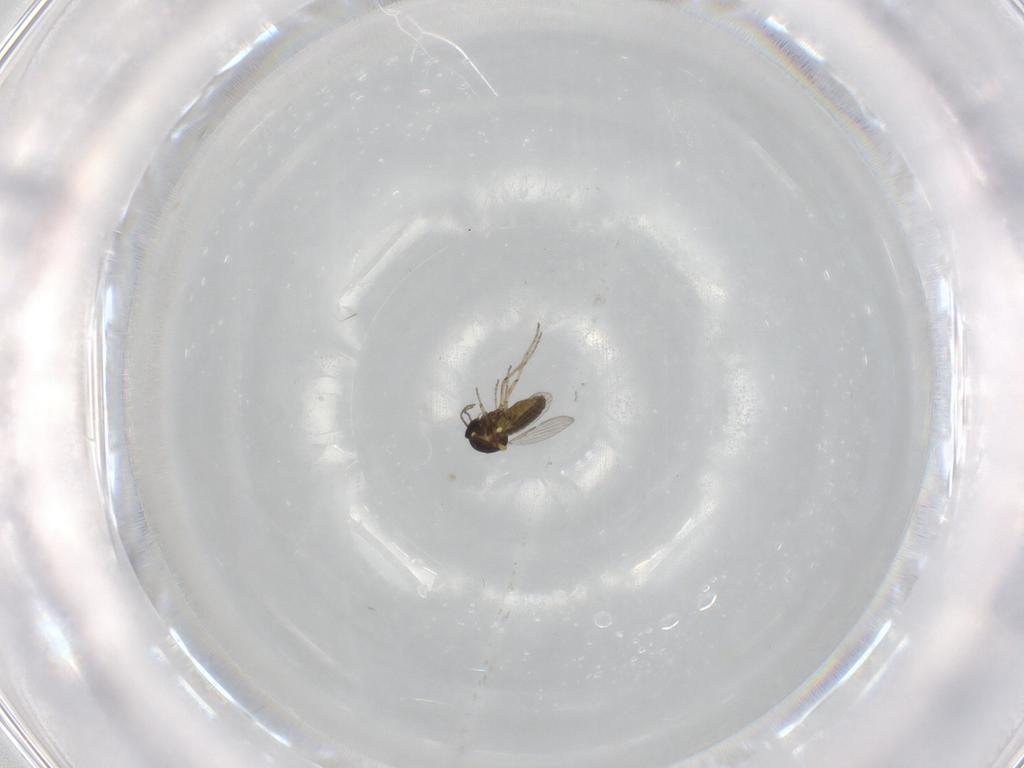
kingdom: Animalia
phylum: Arthropoda
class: Insecta
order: Diptera
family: Ceratopogonidae
